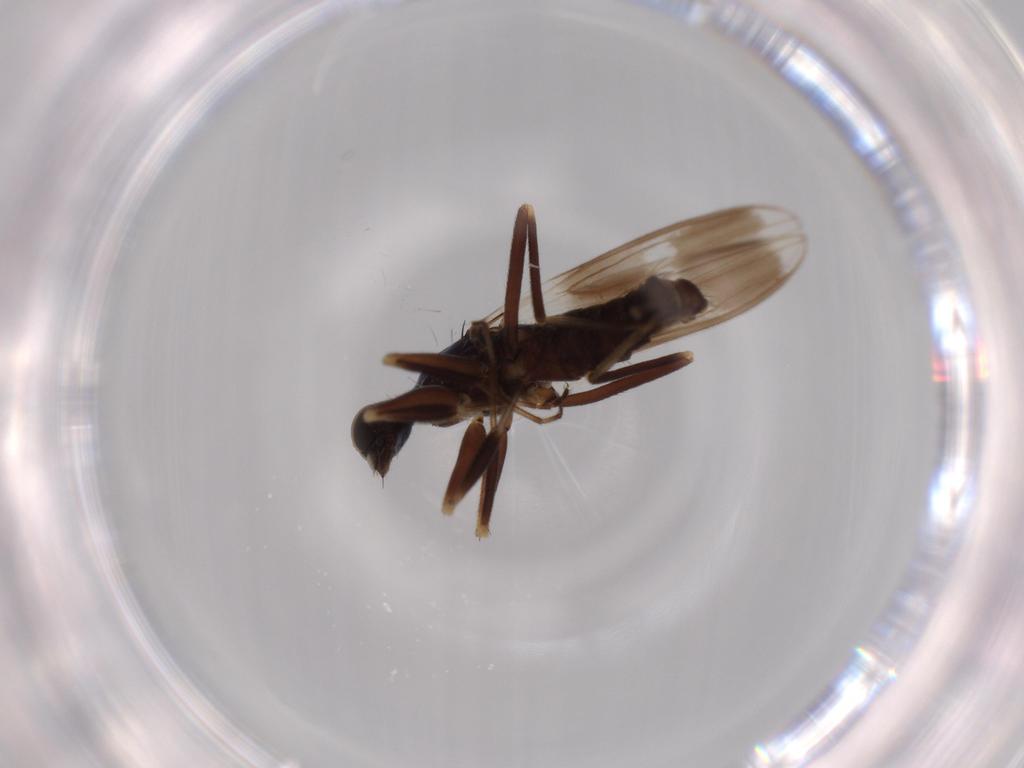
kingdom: Animalia
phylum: Arthropoda
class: Insecta
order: Diptera
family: Hybotidae
